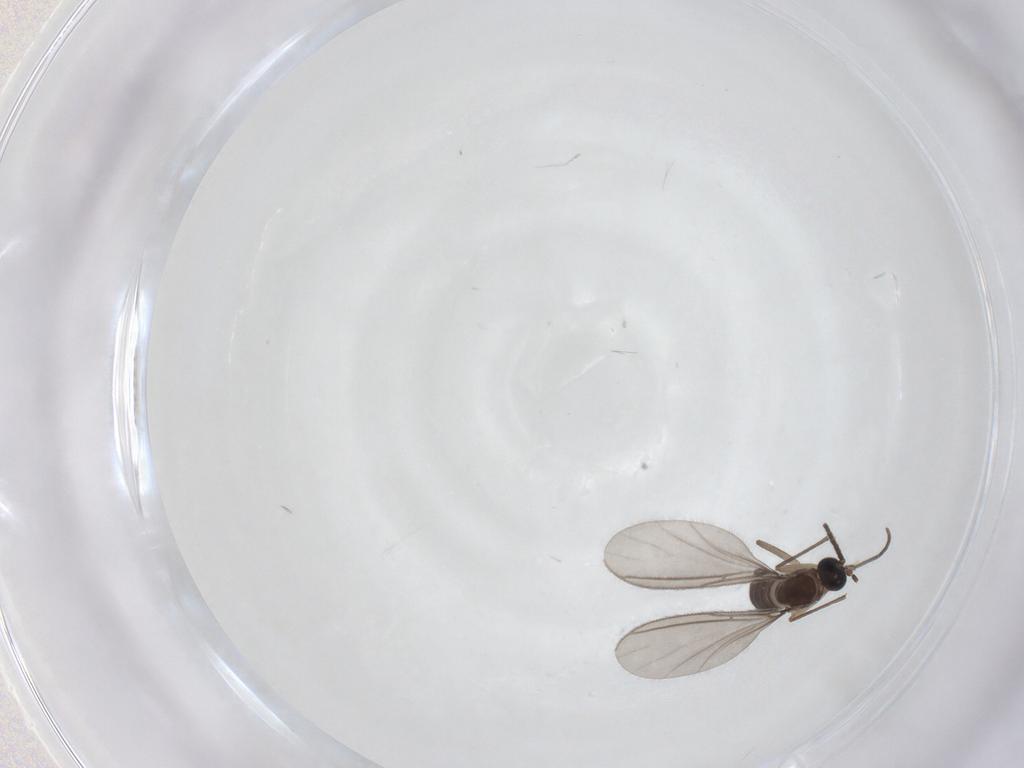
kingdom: Animalia
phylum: Arthropoda
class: Insecta
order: Diptera
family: Sciaridae
